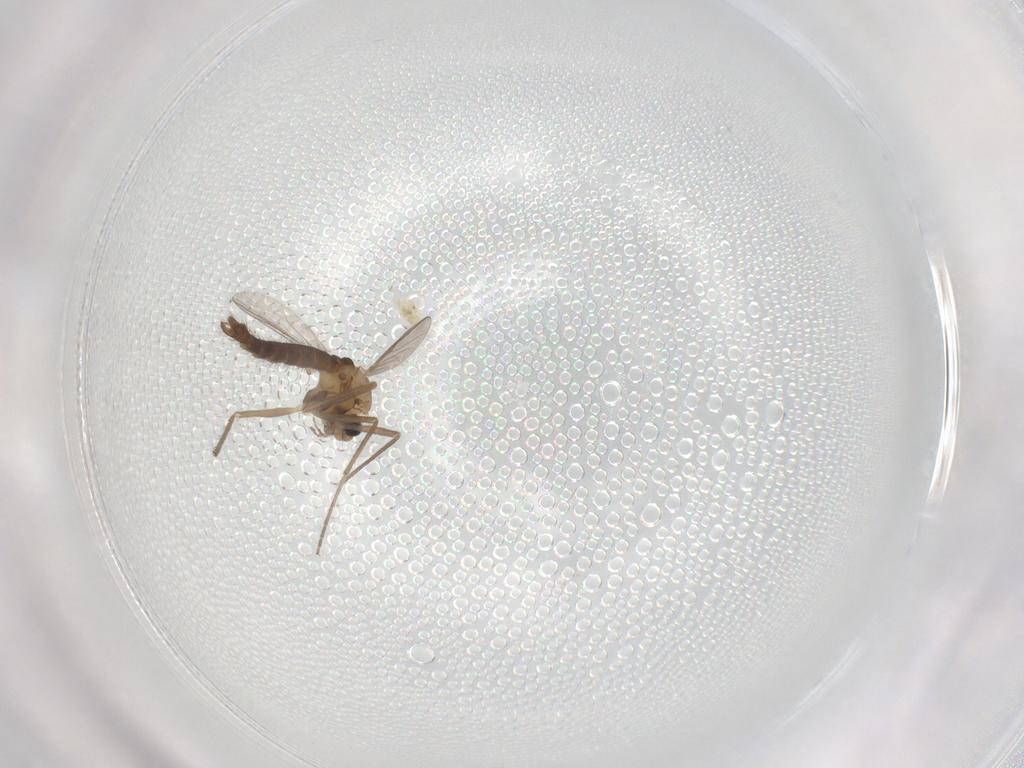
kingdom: Animalia
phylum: Arthropoda
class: Insecta
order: Diptera
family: Chironomidae
